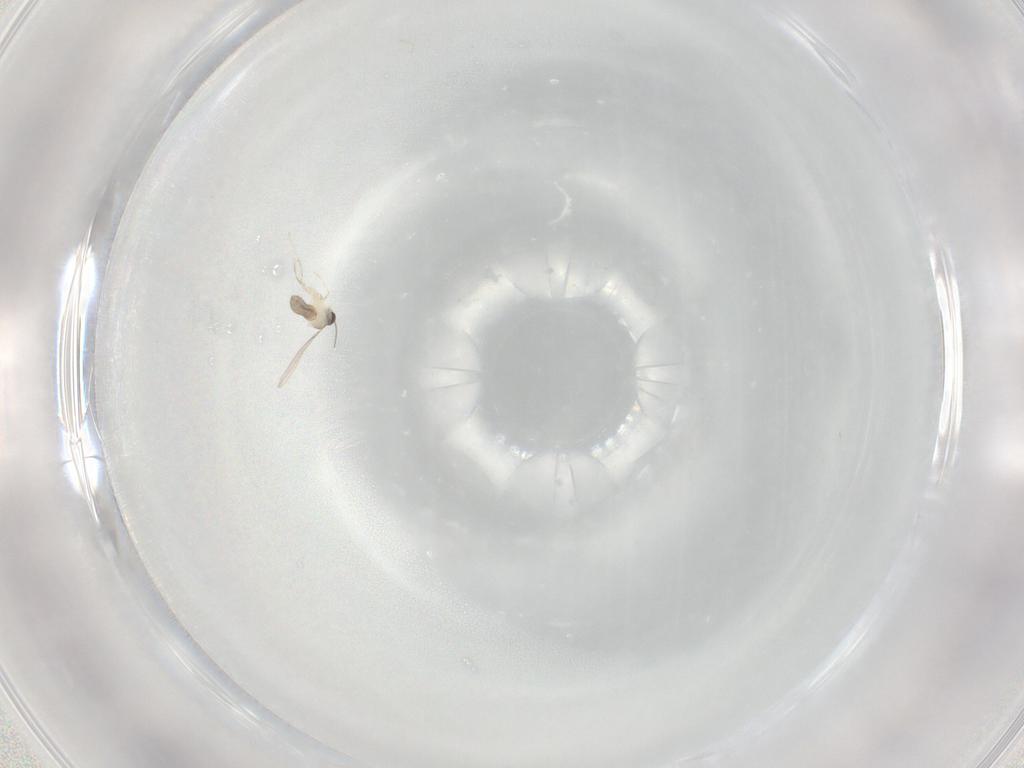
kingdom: Animalia
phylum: Arthropoda
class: Insecta
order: Diptera
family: Cecidomyiidae
